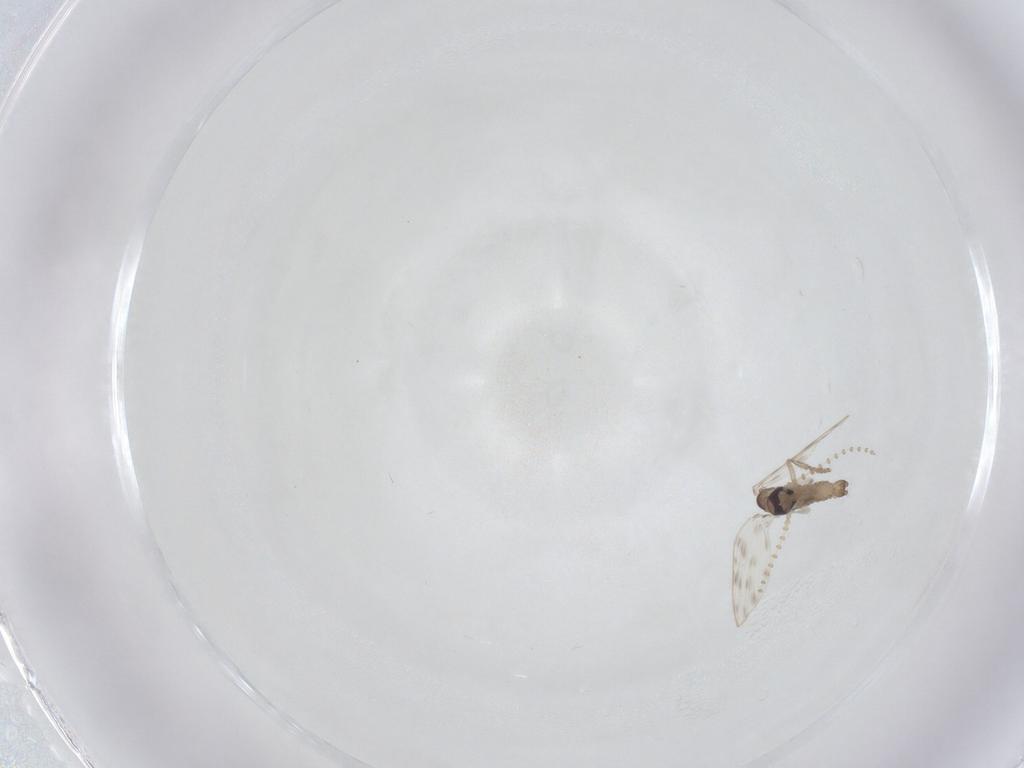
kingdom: Animalia
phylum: Arthropoda
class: Insecta
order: Diptera
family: Psychodidae
